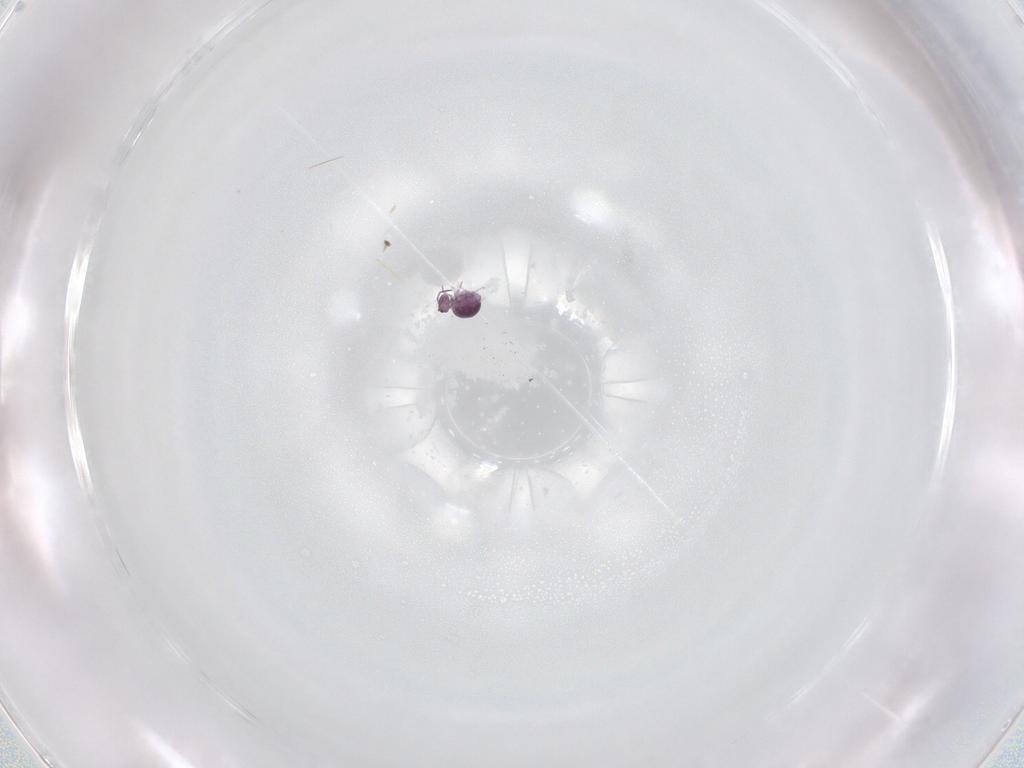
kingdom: Animalia
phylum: Arthropoda
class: Collembola
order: Symphypleona
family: Sminthurididae
